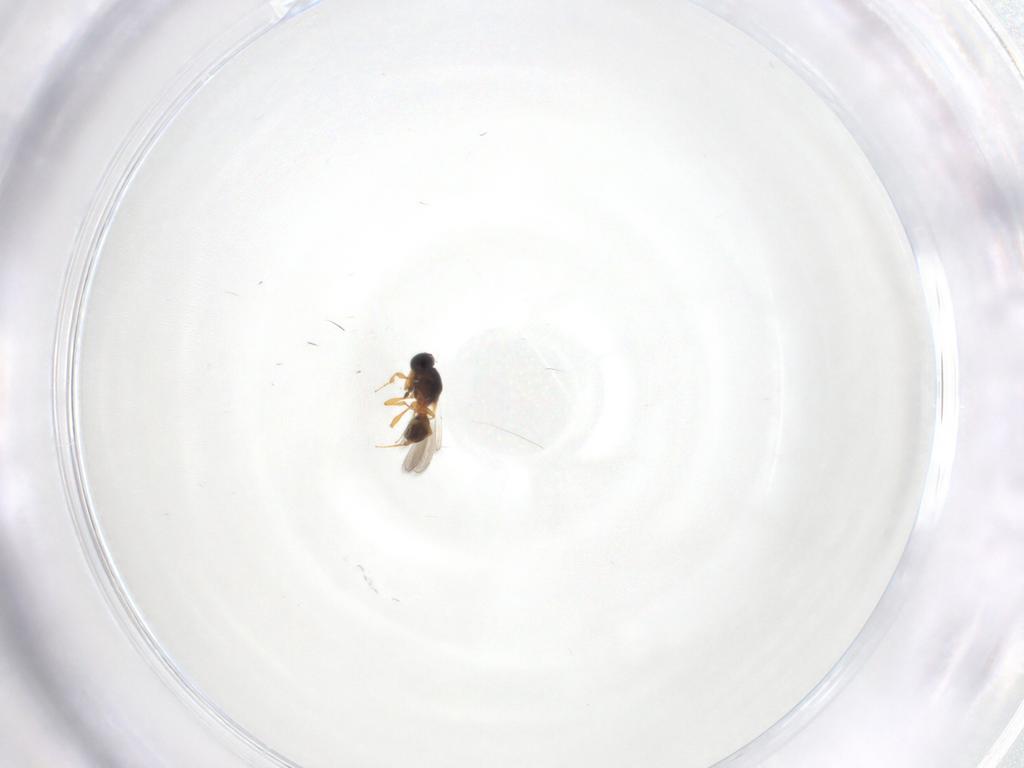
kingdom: Animalia
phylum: Arthropoda
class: Insecta
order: Hymenoptera
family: Platygastridae
